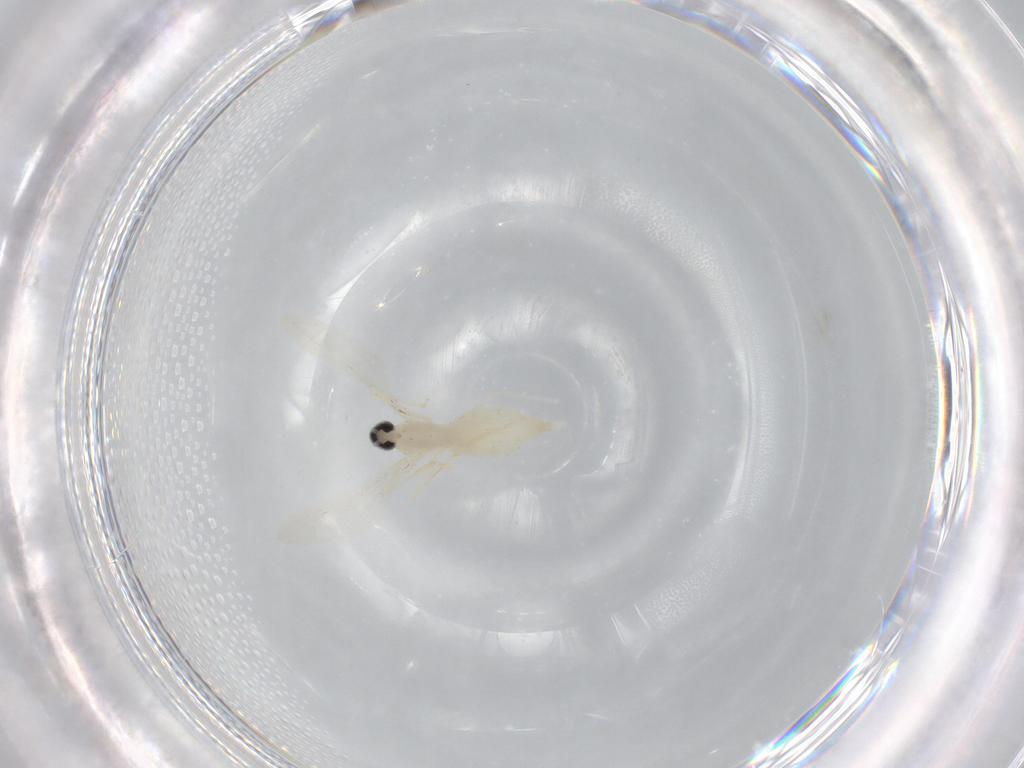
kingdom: Animalia
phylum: Arthropoda
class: Insecta
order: Diptera
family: Cecidomyiidae
